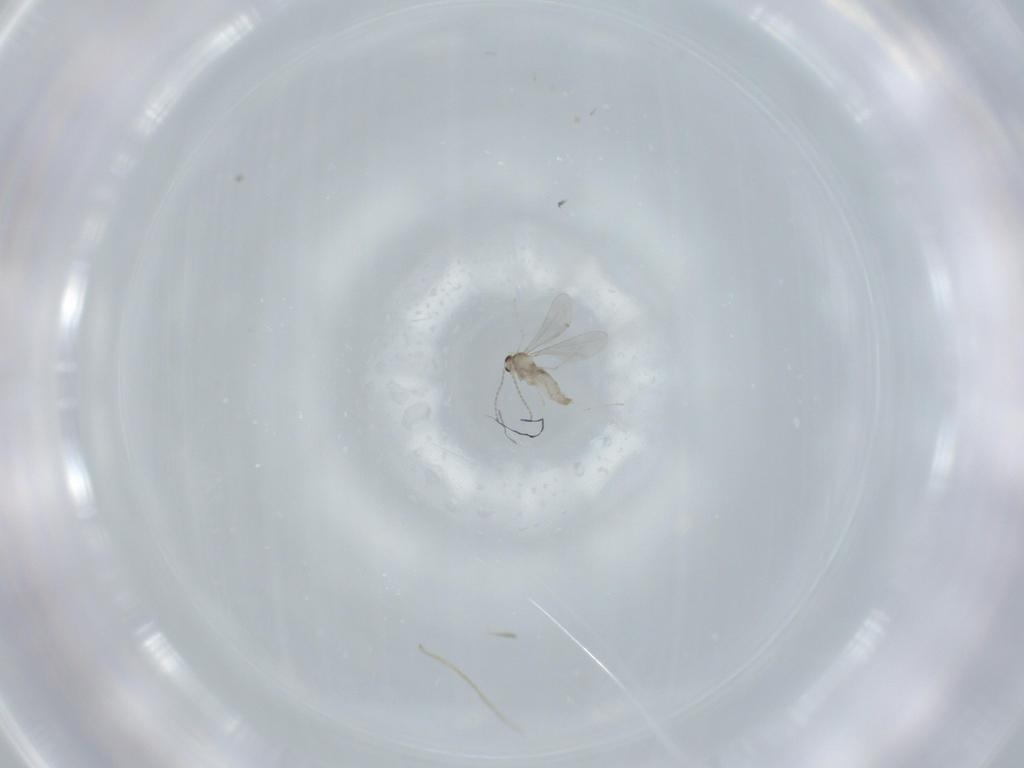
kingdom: Animalia
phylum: Arthropoda
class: Insecta
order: Diptera
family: Cecidomyiidae
